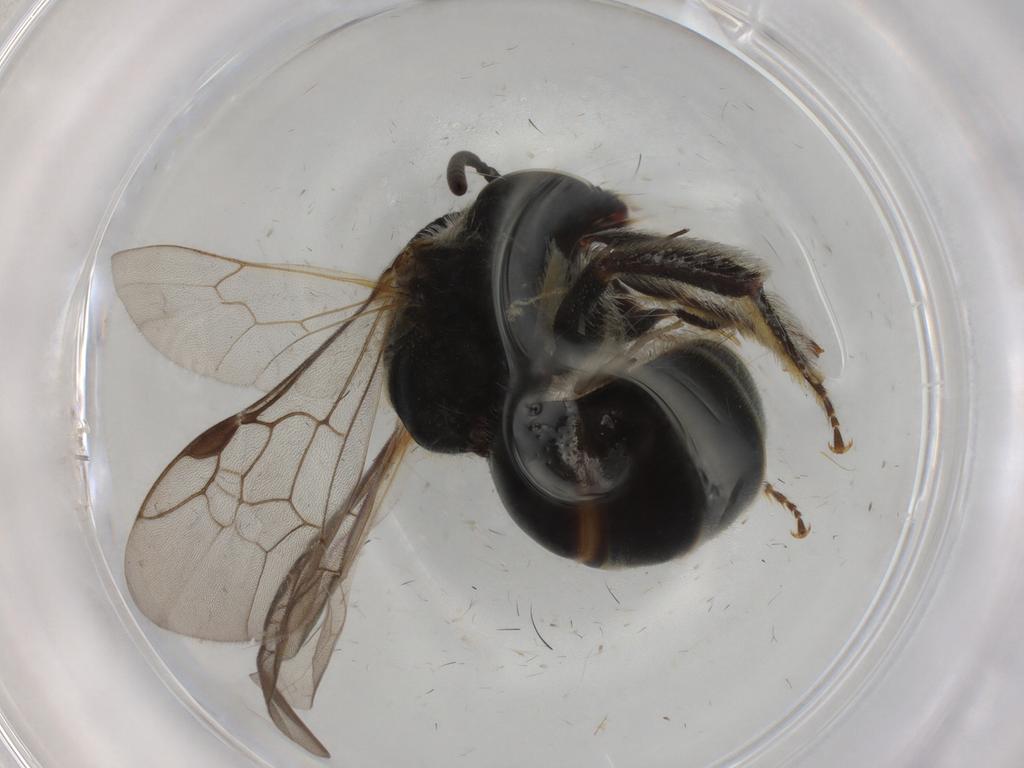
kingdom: Animalia
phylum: Arthropoda
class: Insecta
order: Hymenoptera
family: Halictidae
